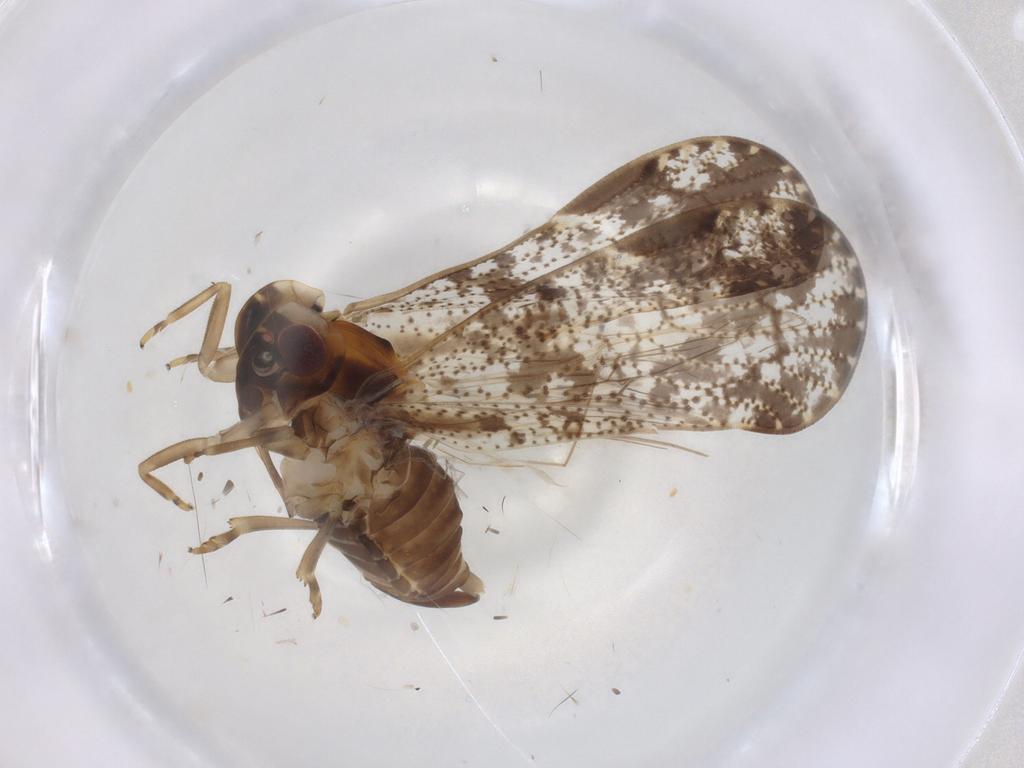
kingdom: Animalia
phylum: Arthropoda
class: Insecta
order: Hemiptera
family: Cixiidae
